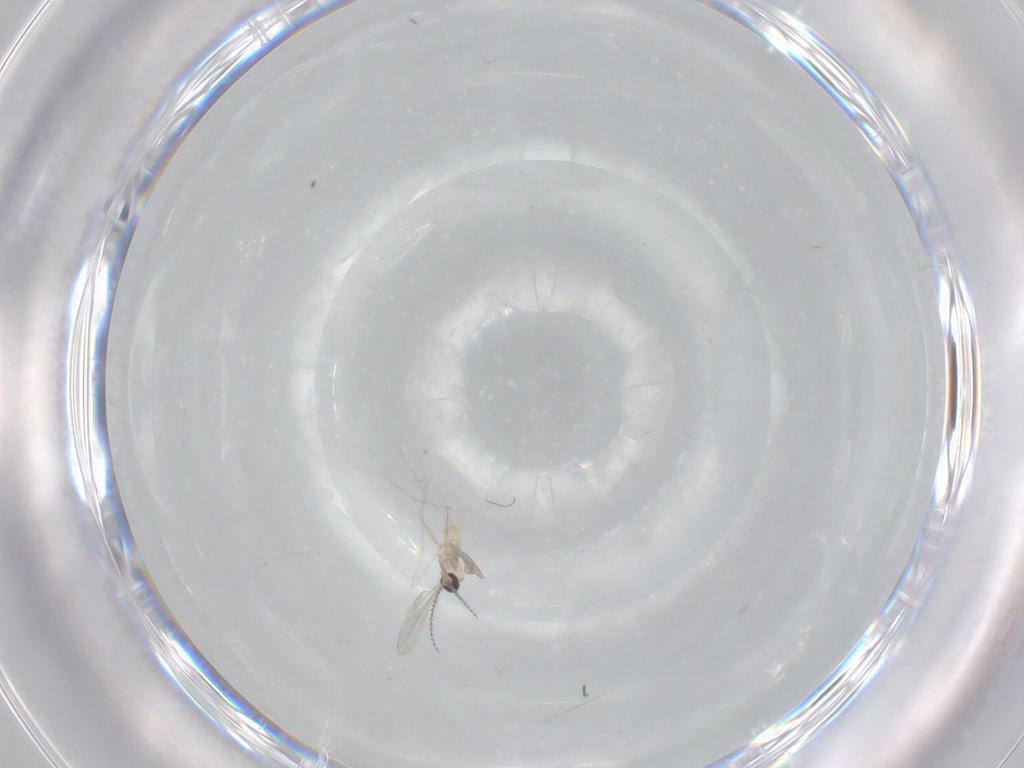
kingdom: Animalia
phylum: Arthropoda
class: Insecta
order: Diptera
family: Cecidomyiidae
